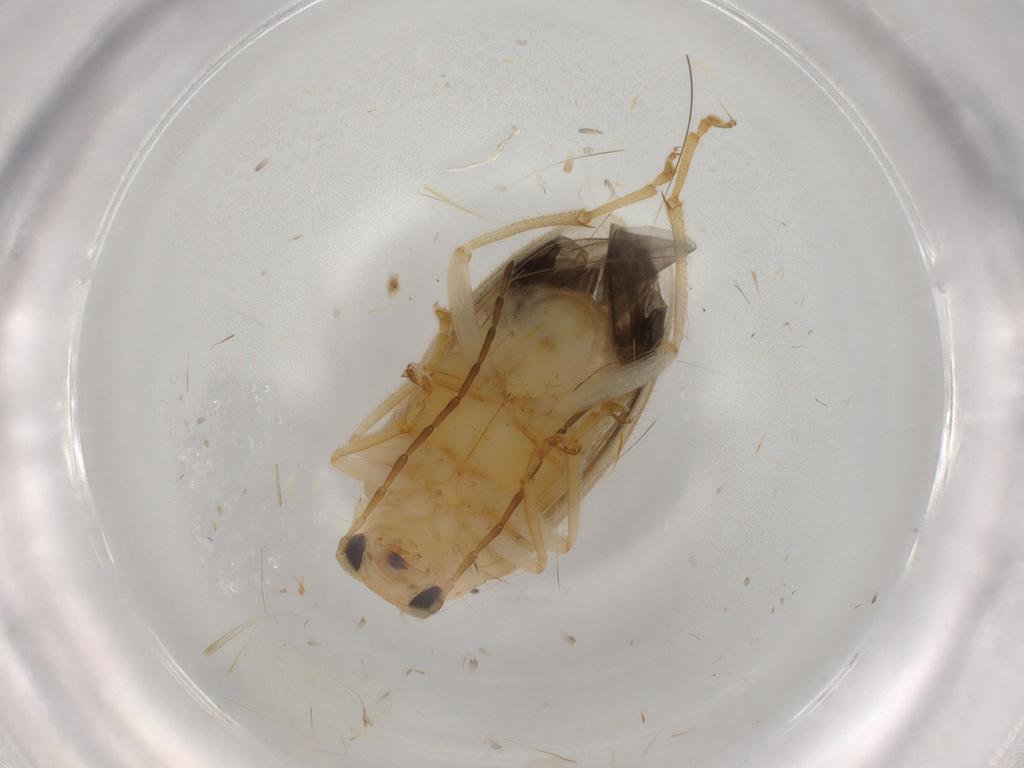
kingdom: Animalia
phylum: Arthropoda
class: Insecta
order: Coleoptera
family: Chrysomelidae
